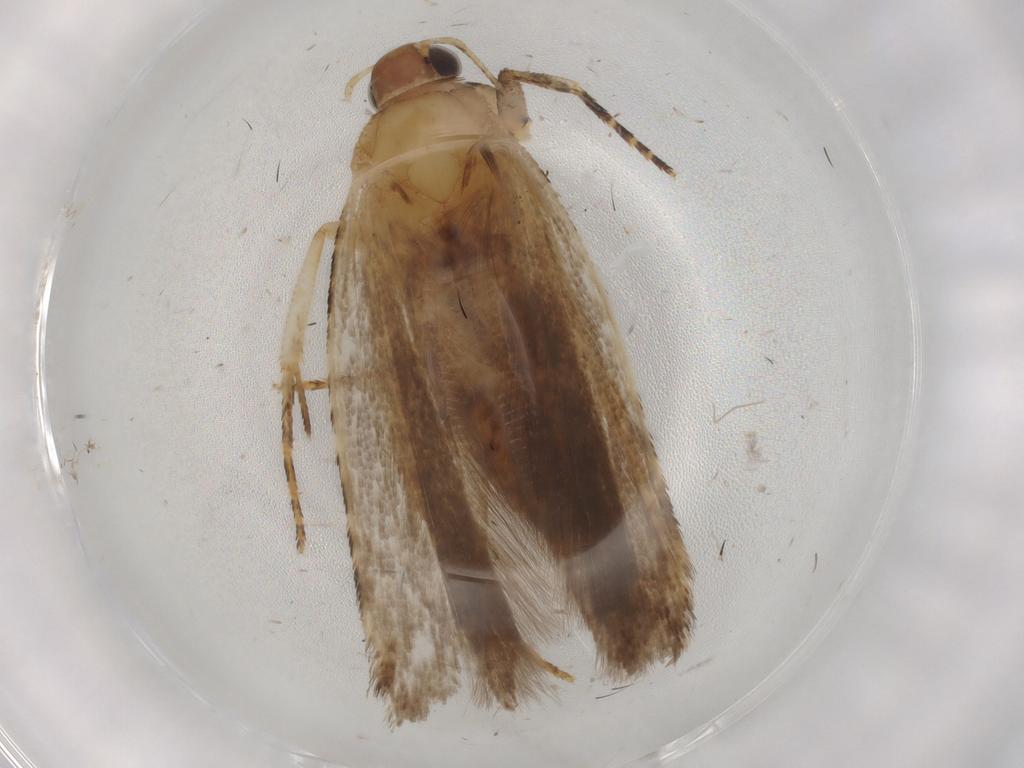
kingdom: Animalia
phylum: Arthropoda
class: Insecta
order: Lepidoptera
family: Gelechiidae
